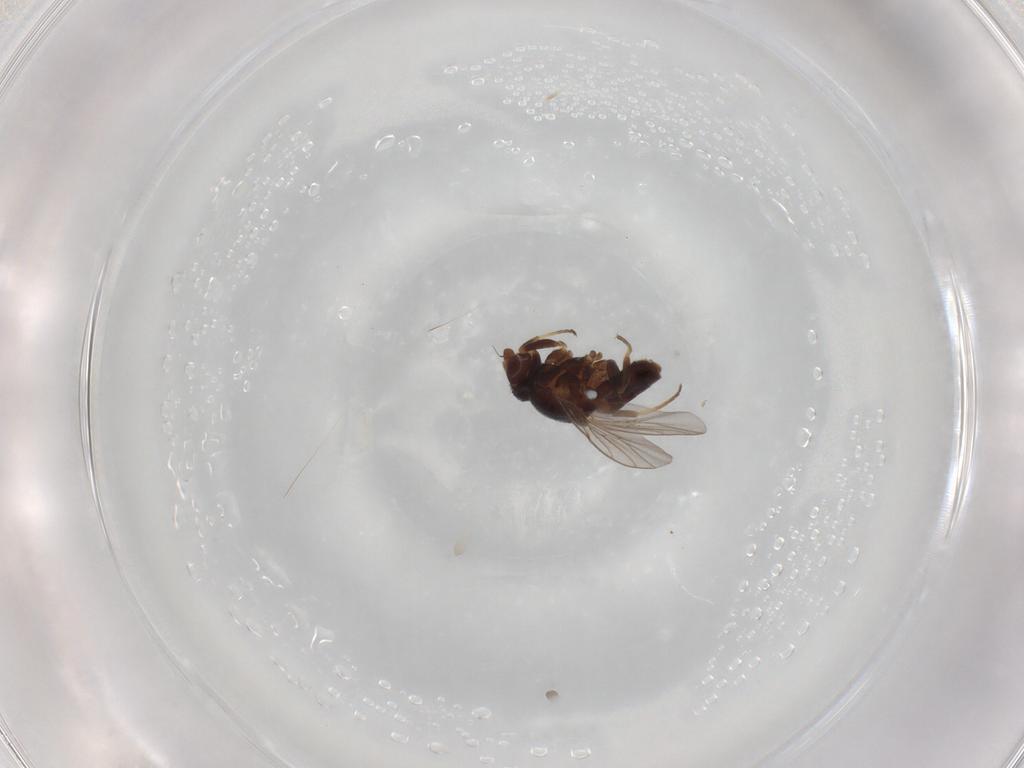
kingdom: Animalia
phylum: Arthropoda
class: Insecta
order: Diptera
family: Chloropidae
